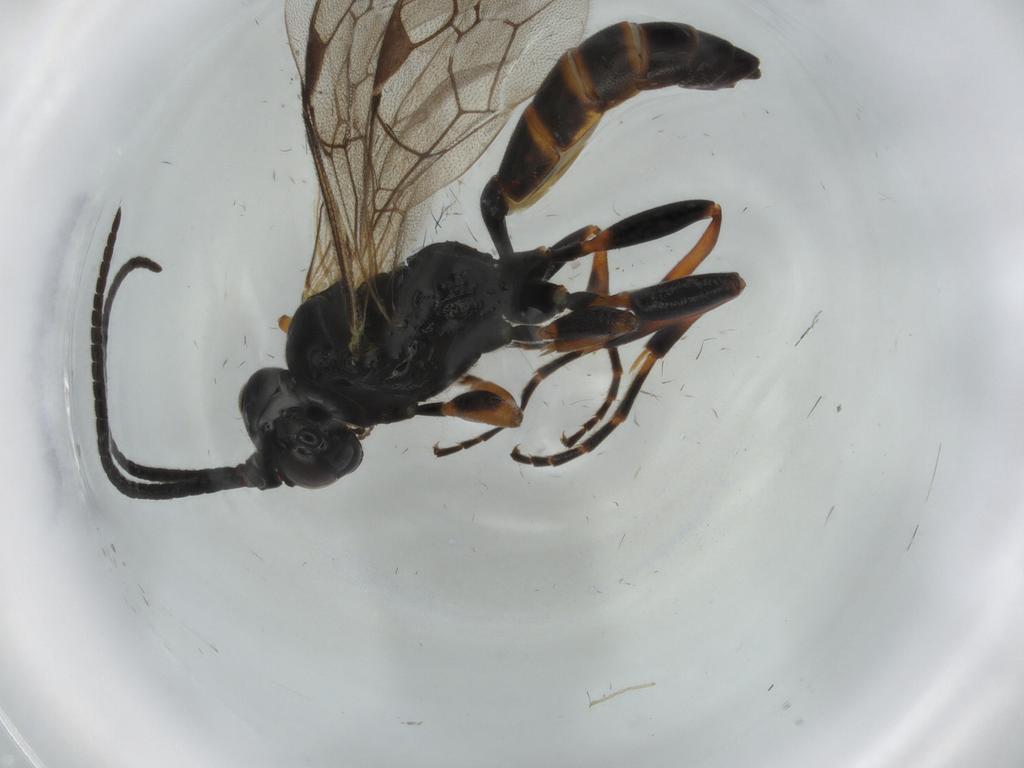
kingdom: Animalia
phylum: Arthropoda
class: Insecta
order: Hymenoptera
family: Ichneumonidae
